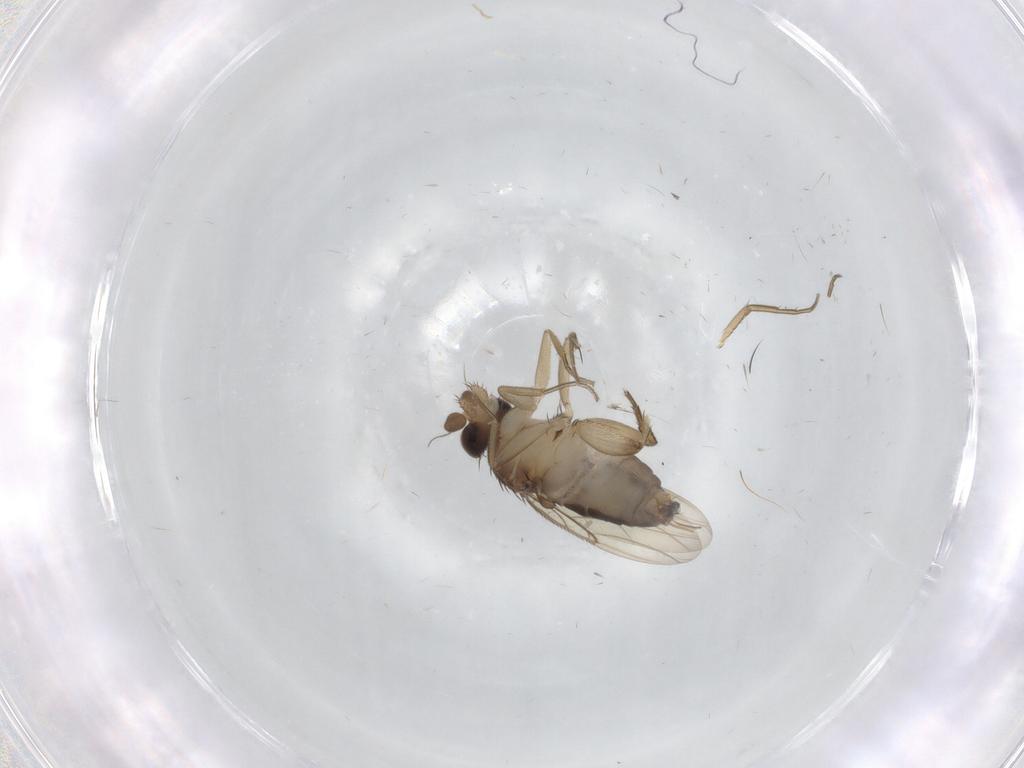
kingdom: Animalia
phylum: Arthropoda
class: Insecta
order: Diptera
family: Phoridae
